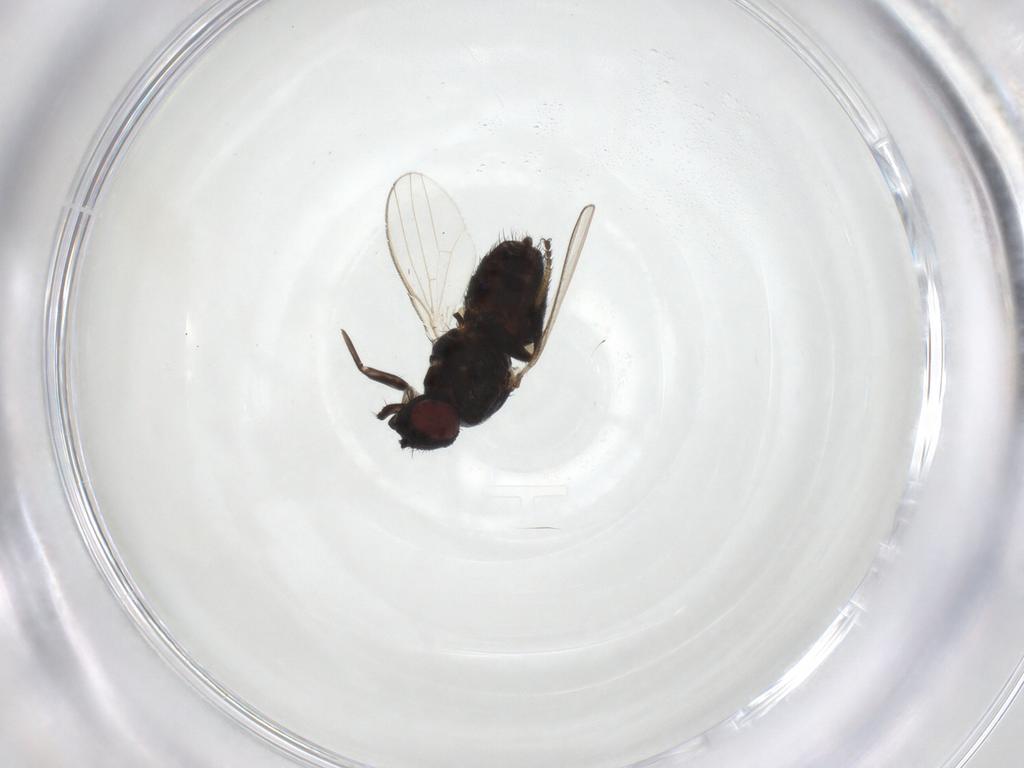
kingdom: Animalia
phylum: Arthropoda
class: Insecta
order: Diptera
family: Milichiidae
